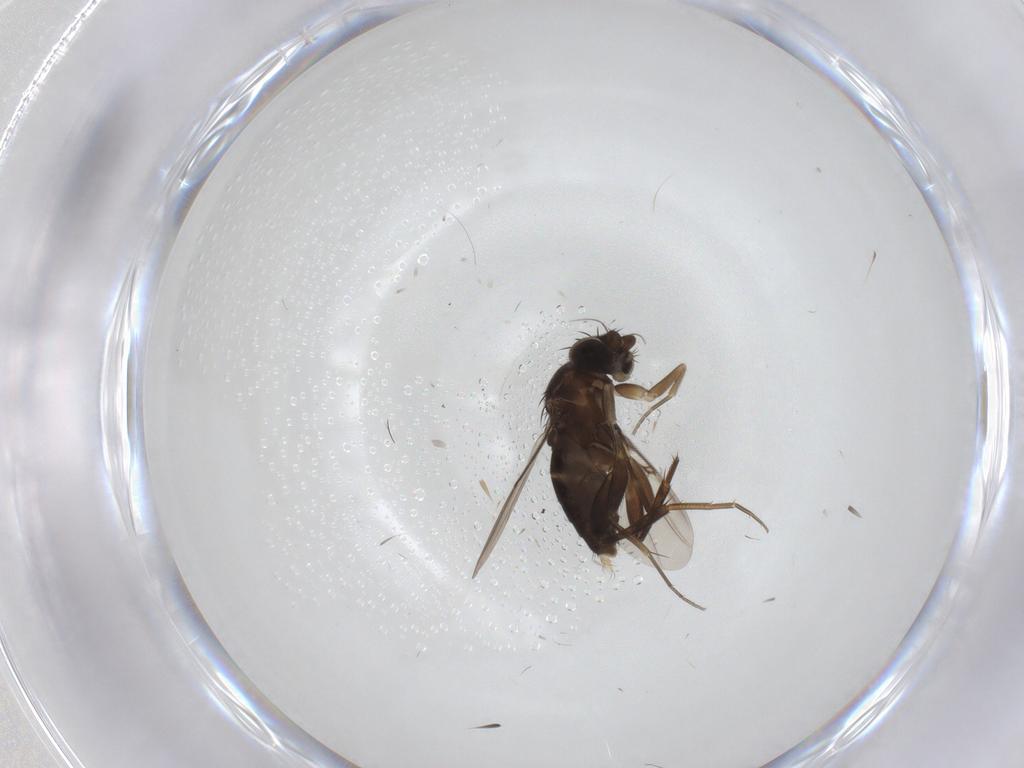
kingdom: Animalia
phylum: Arthropoda
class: Insecta
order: Diptera
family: Phoridae
